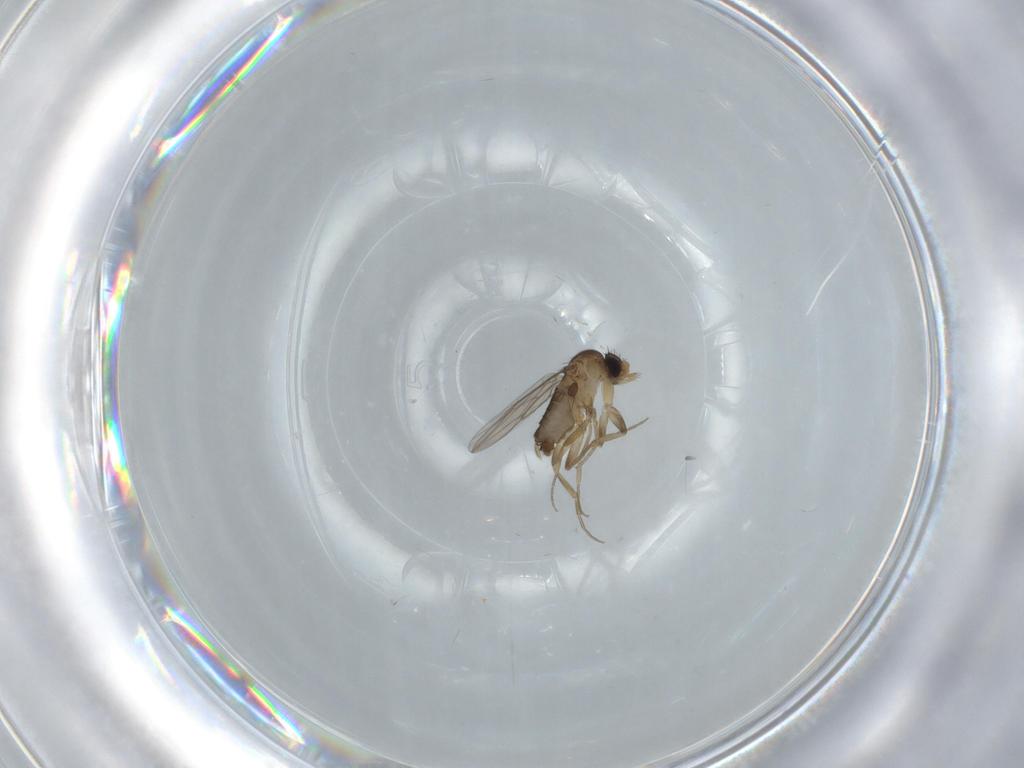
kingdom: Animalia
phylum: Arthropoda
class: Insecta
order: Diptera
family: Phoridae
